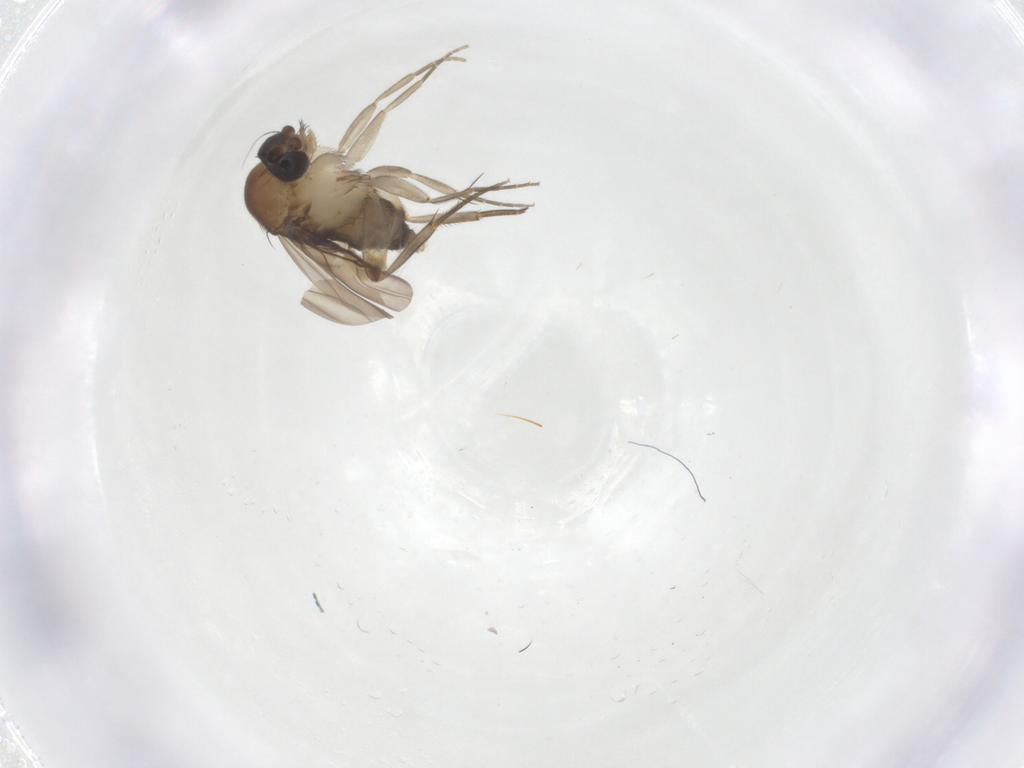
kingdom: Animalia
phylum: Arthropoda
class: Insecta
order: Diptera
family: Phoridae
